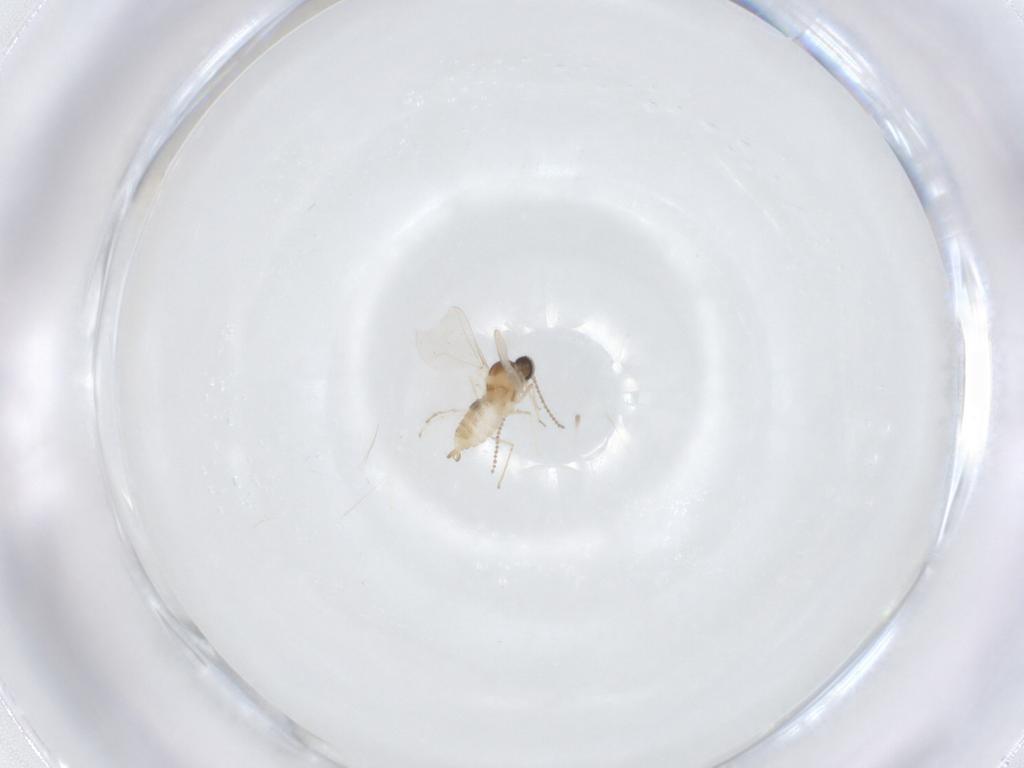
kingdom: Animalia
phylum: Arthropoda
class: Insecta
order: Diptera
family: Cecidomyiidae
